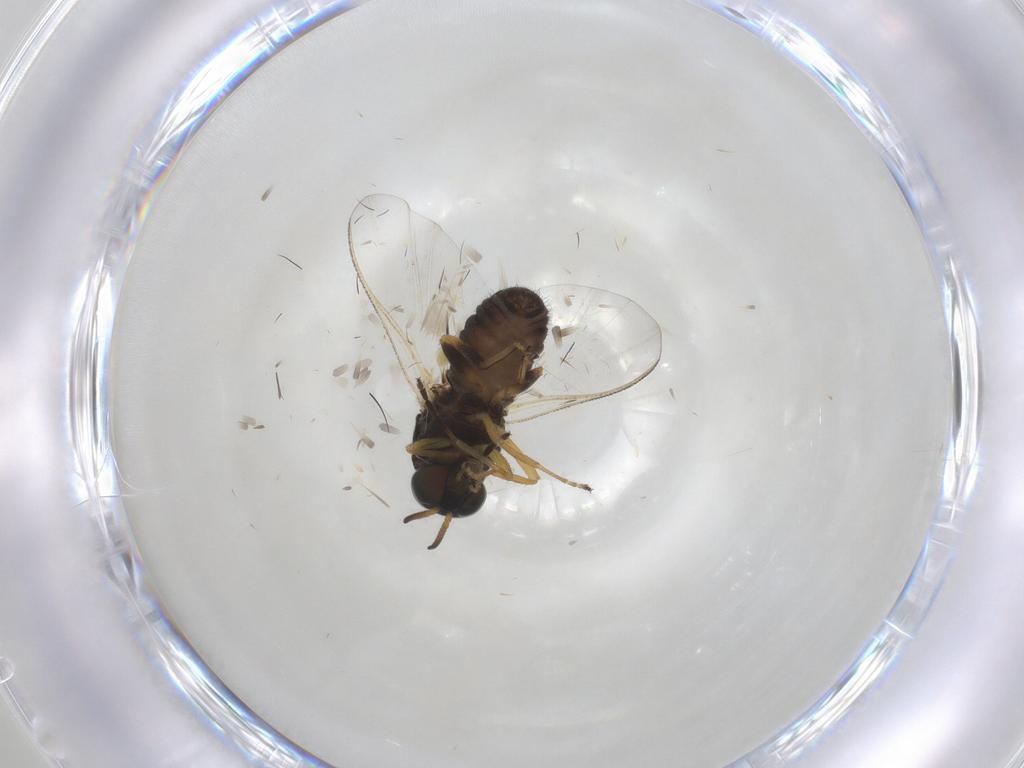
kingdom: Animalia
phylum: Arthropoda
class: Insecta
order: Diptera
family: Simuliidae
